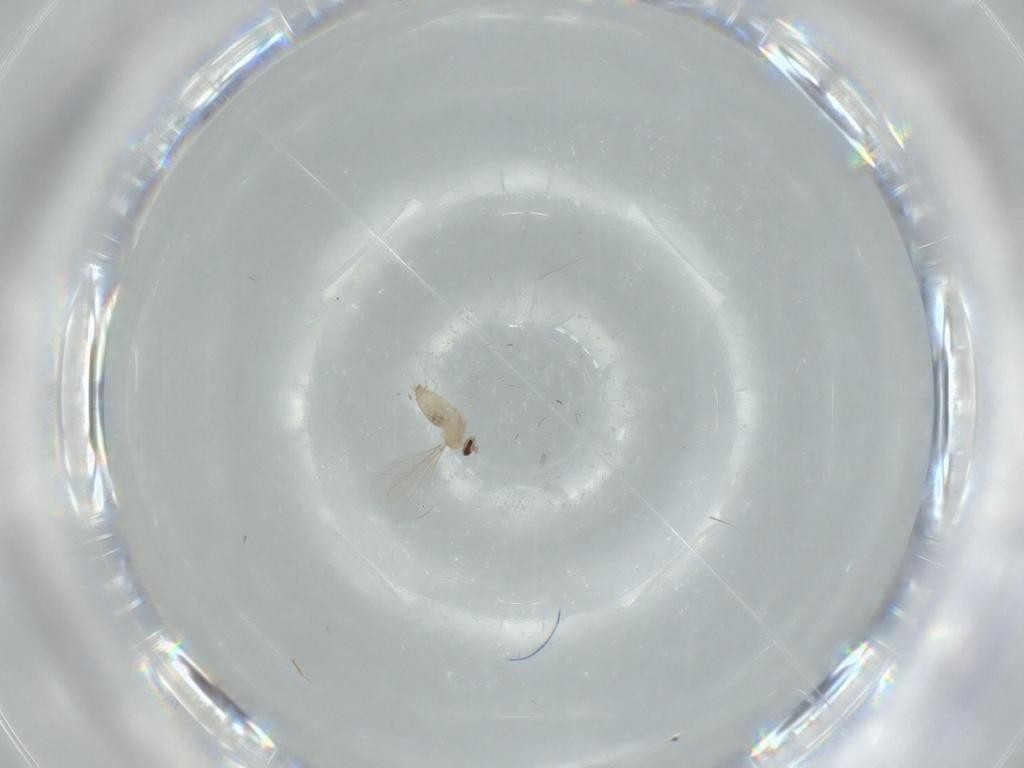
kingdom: Animalia
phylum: Arthropoda
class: Insecta
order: Diptera
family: Cecidomyiidae
